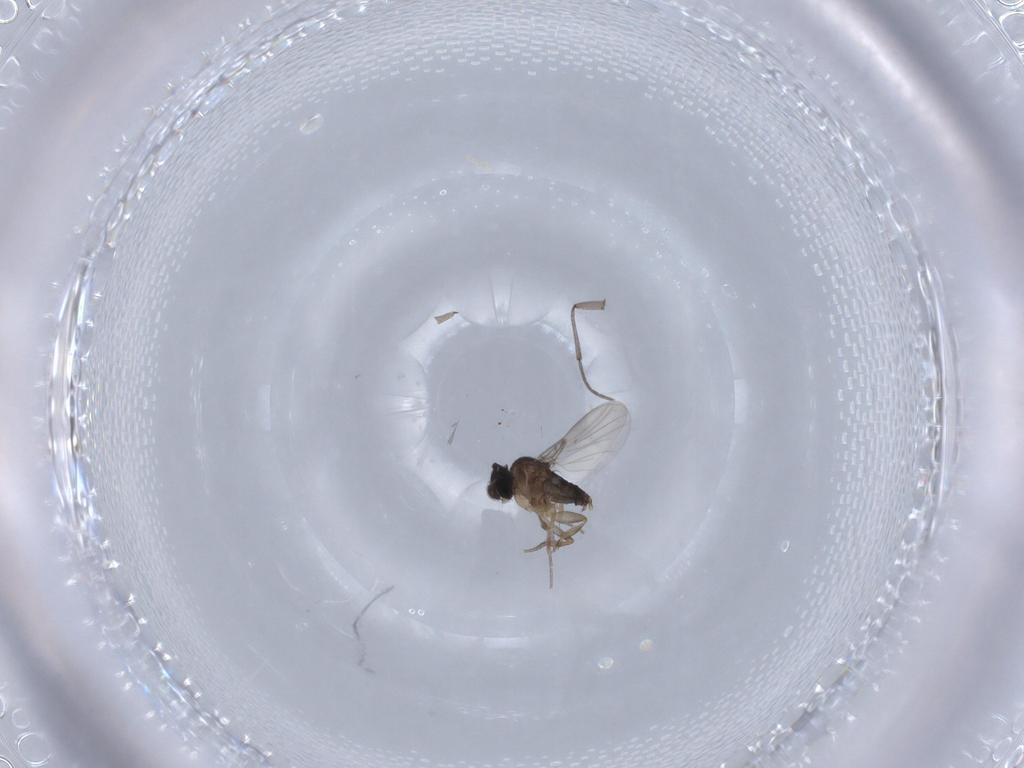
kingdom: Animalia
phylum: Arthropoda
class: Insecta
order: Diptera
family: Phoridae
